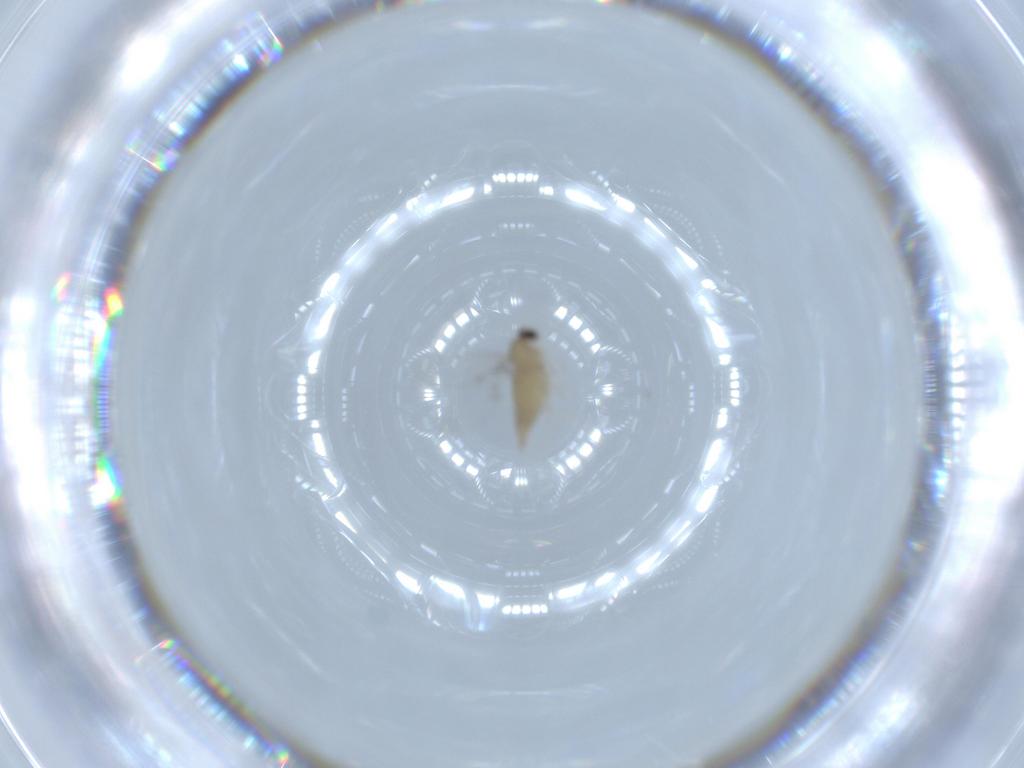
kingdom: Animalia
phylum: Arthropoda
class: Insecta
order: Diptera
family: Cecidomyiidae
